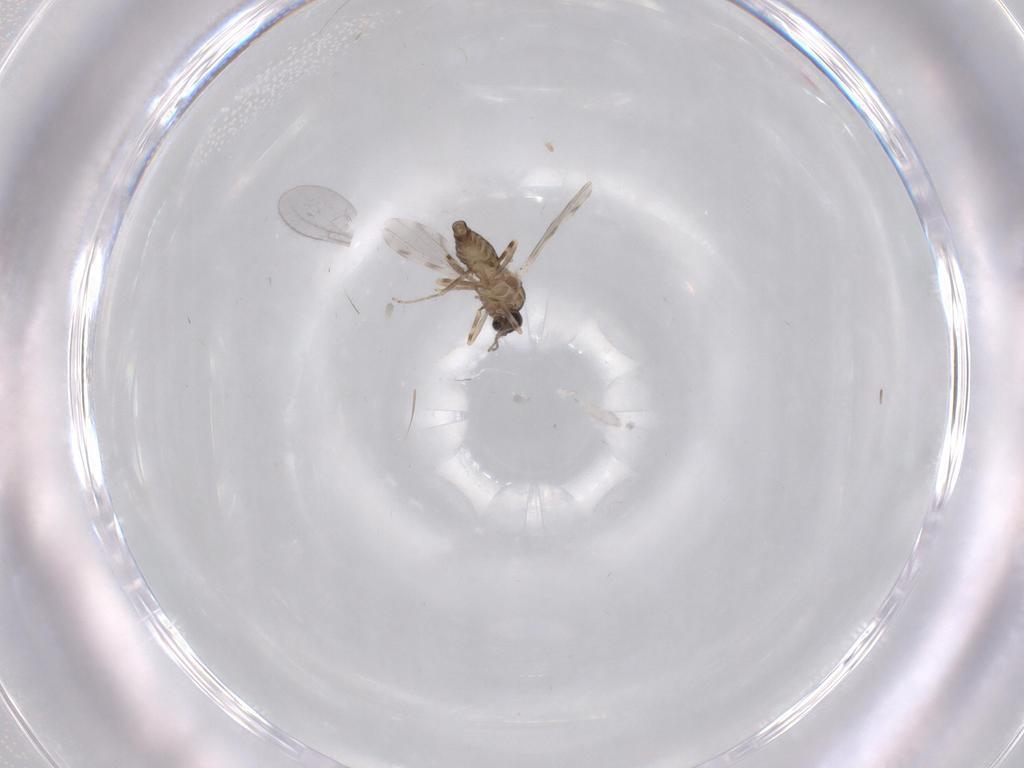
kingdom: Animalia
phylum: Arthropoda
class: Insecta
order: Diptera
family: Ceratopogonidae
